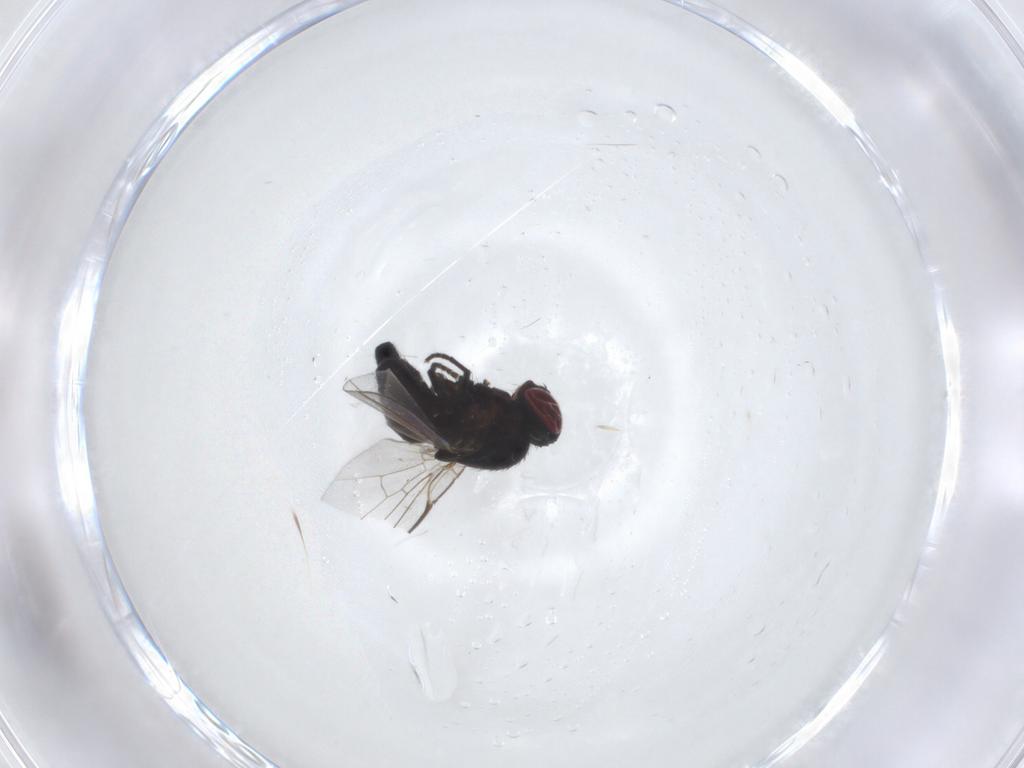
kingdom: Animalia
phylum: Arthropoda
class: Insecta
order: Diptera
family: Agromyzidae
